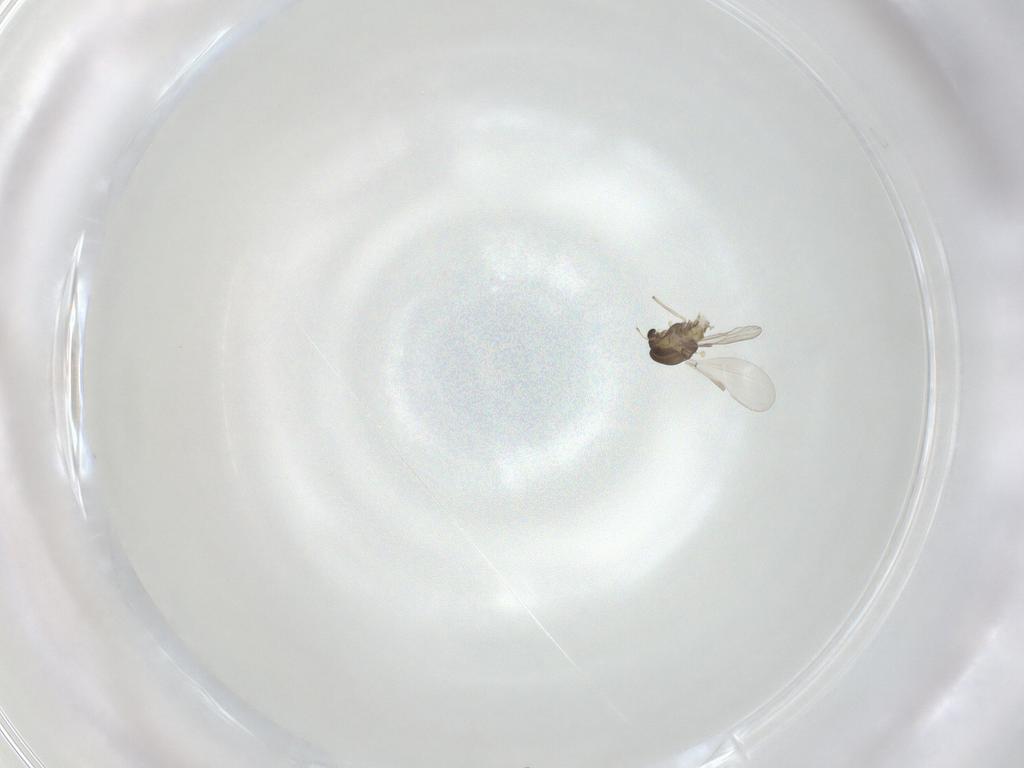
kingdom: Animalia
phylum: Arthropoda
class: Insecta
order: Diptera
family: Chironomidae
